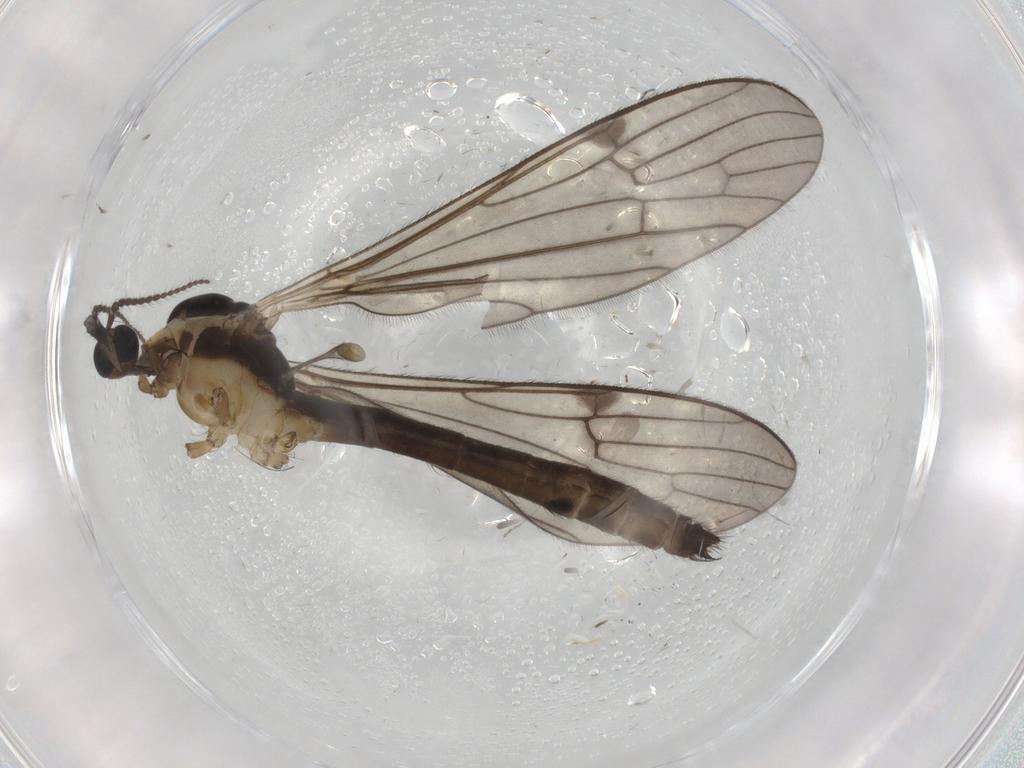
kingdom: Animalia
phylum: Arthropoda
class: Insecta
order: Diptera
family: Limoniidae
